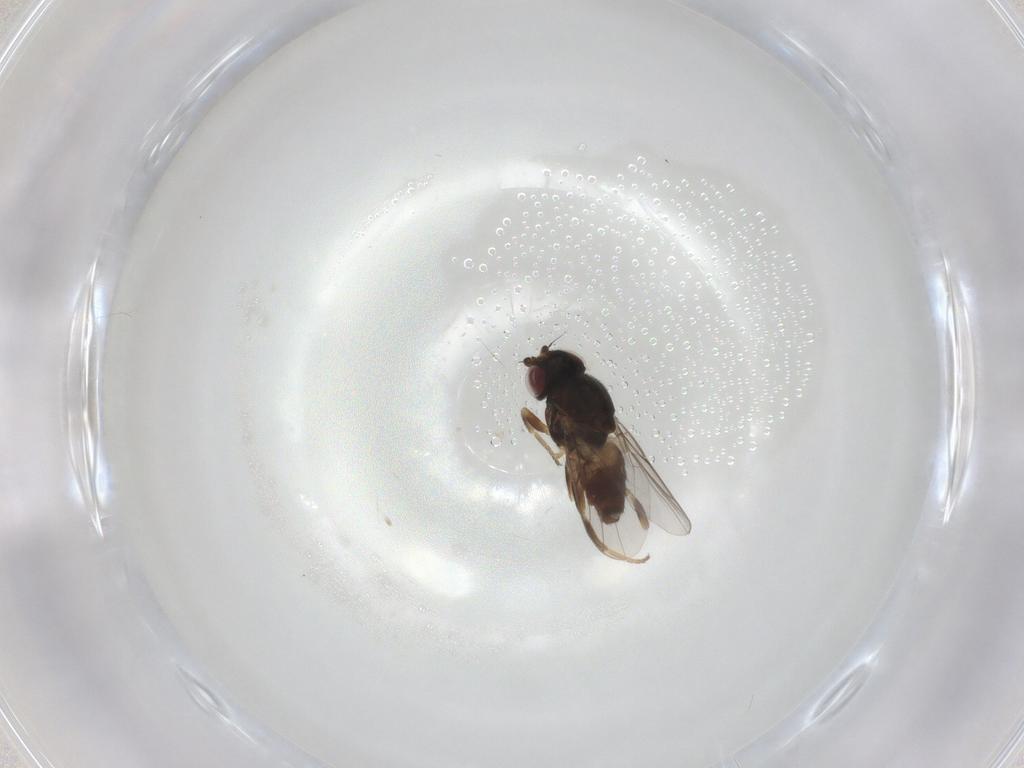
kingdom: Animalia
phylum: Arthropoda
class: Insecta
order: Diptera
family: Chloropidae
